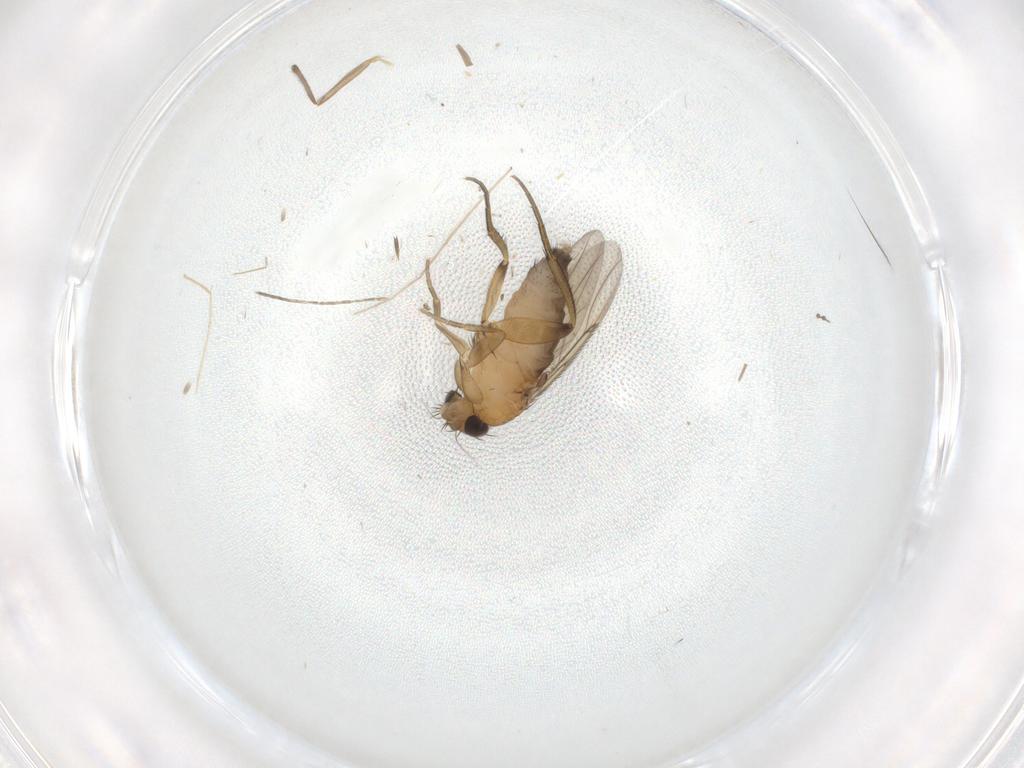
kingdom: Animalia
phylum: Arthropoda
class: Insecta
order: Diptera
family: Phoridae
